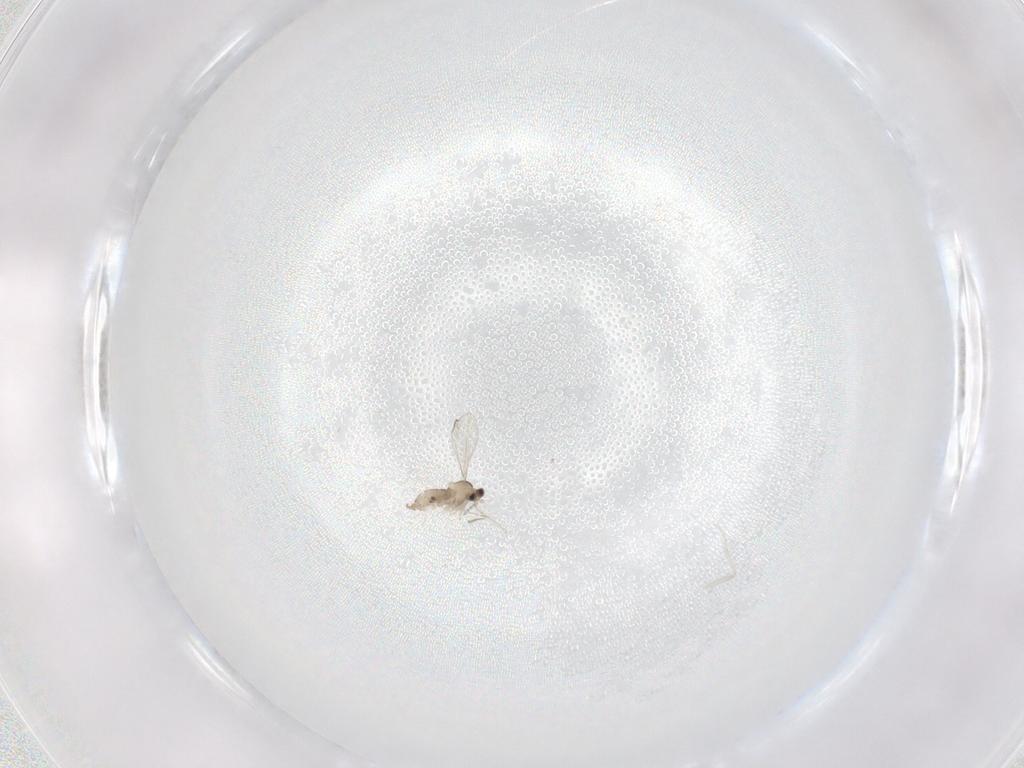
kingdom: Animalia
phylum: Arthropoda
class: Insecta
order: Diptera
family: Cecidomyiidae
